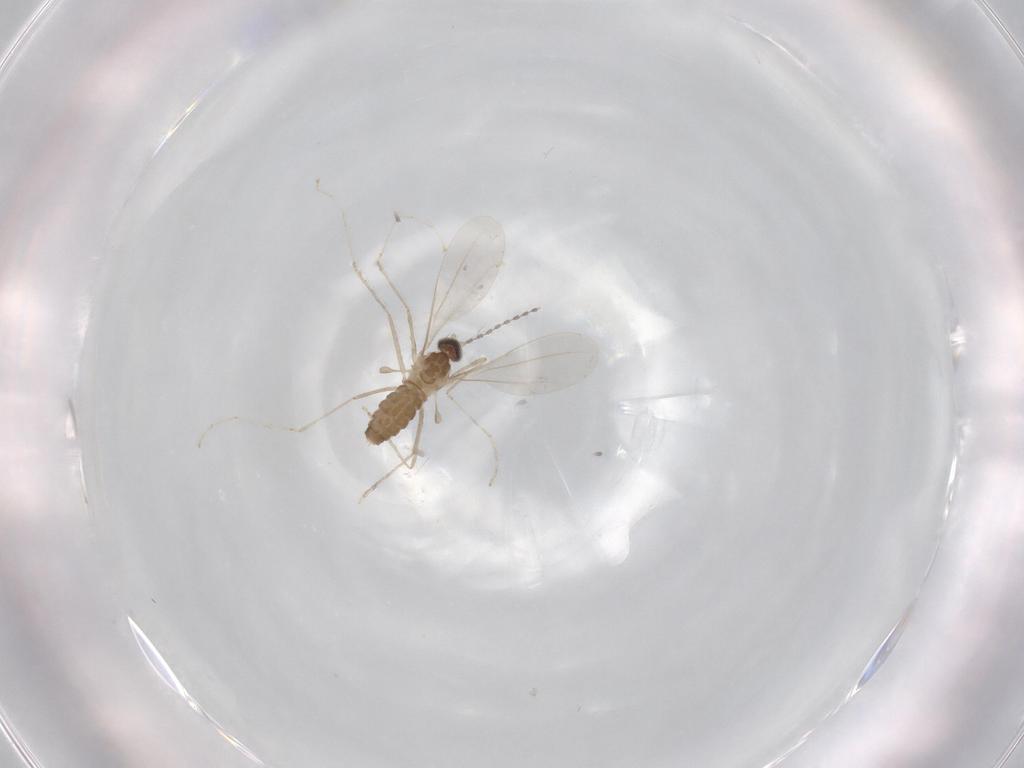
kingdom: Animalia
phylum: Arthropoda
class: Insecta
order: Diptera
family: Cecidomyiidae
